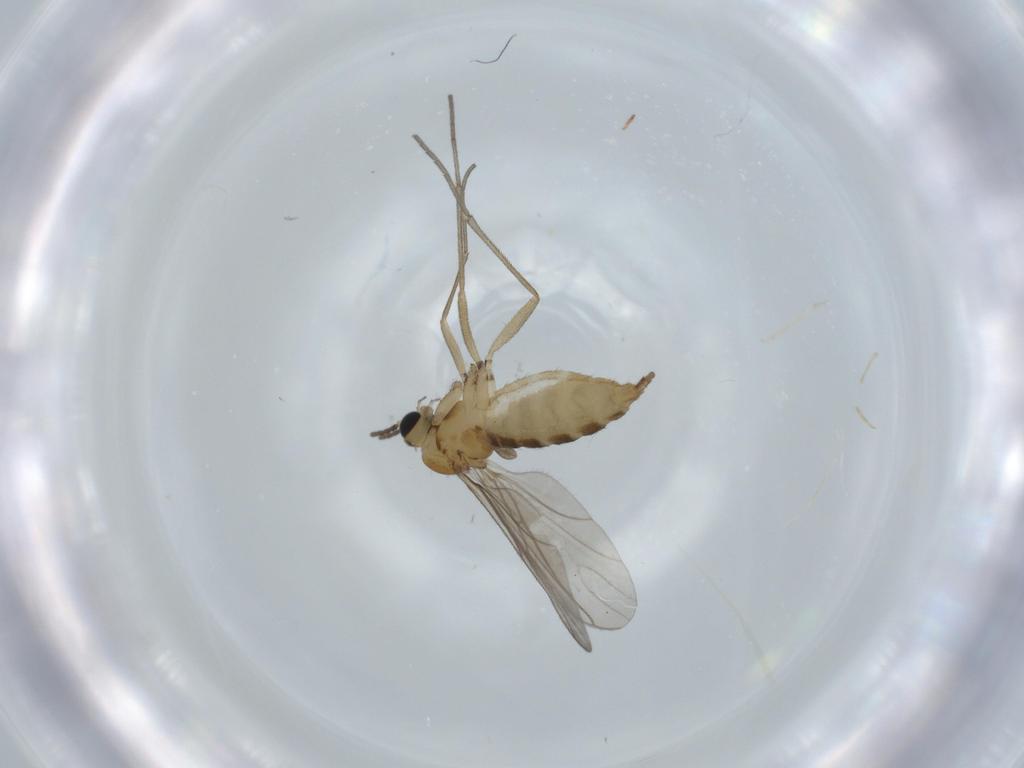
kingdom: Animalia
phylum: Arthropoda
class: Insecta
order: Diptera
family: Sciaridae
